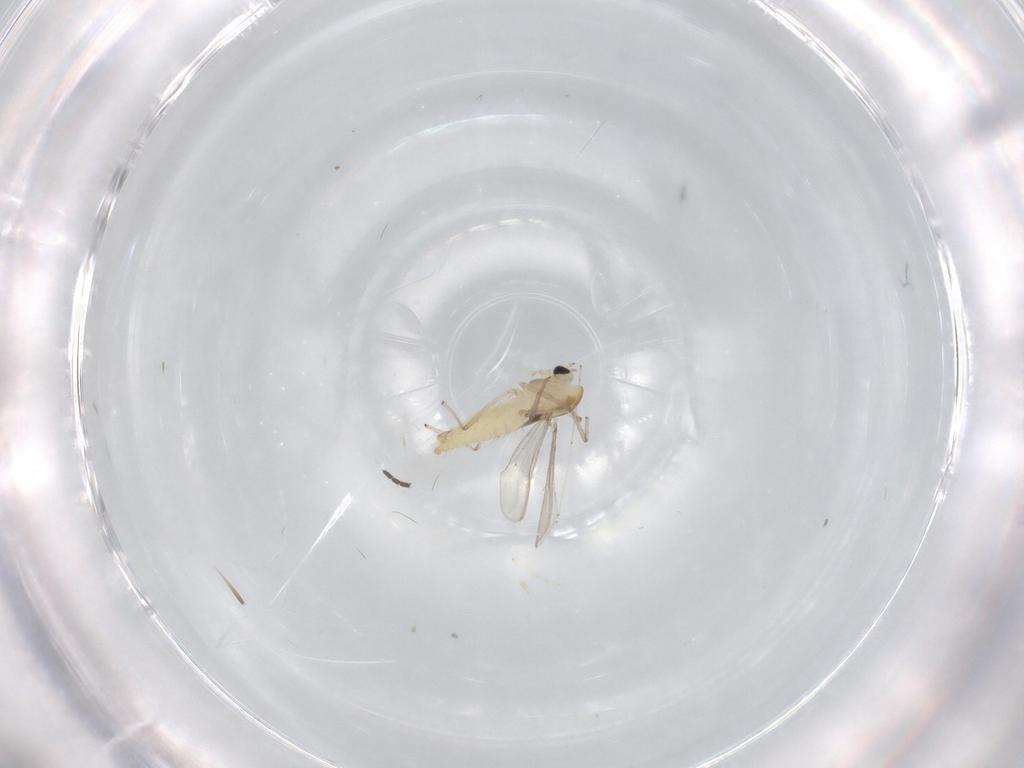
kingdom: Animalia
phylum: Arthropoda
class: Insecta
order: Diptera
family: Chironomidae
